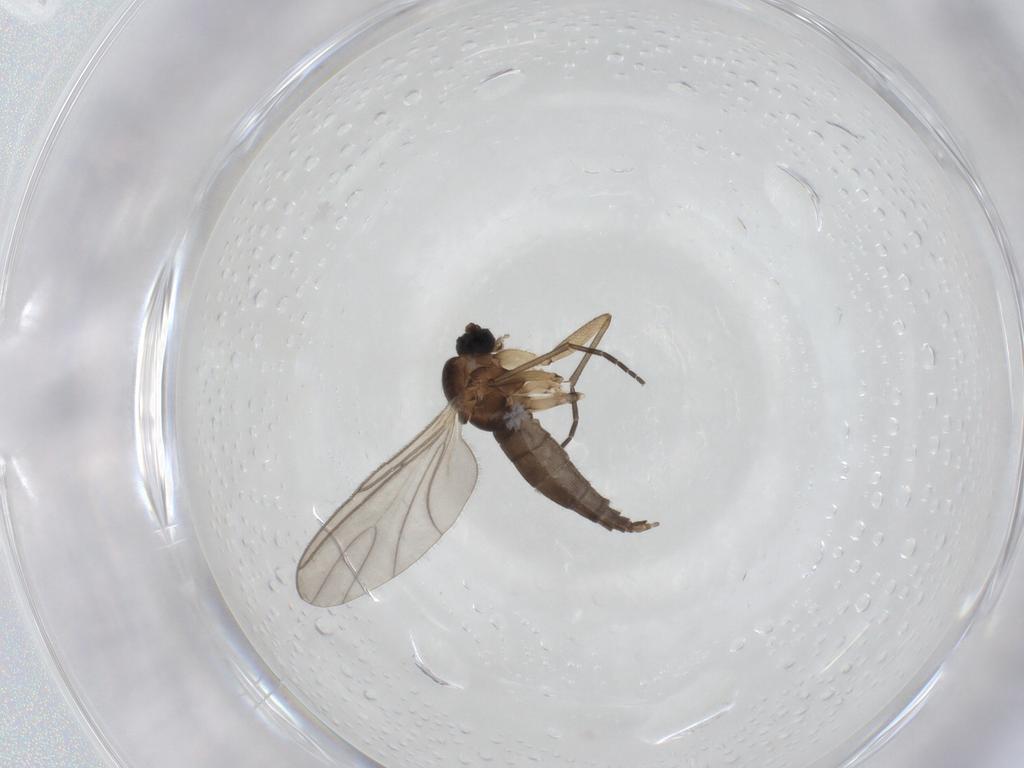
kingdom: Animalia
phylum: Arthropoda
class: Insecta
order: Diptera
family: Sciaridae
